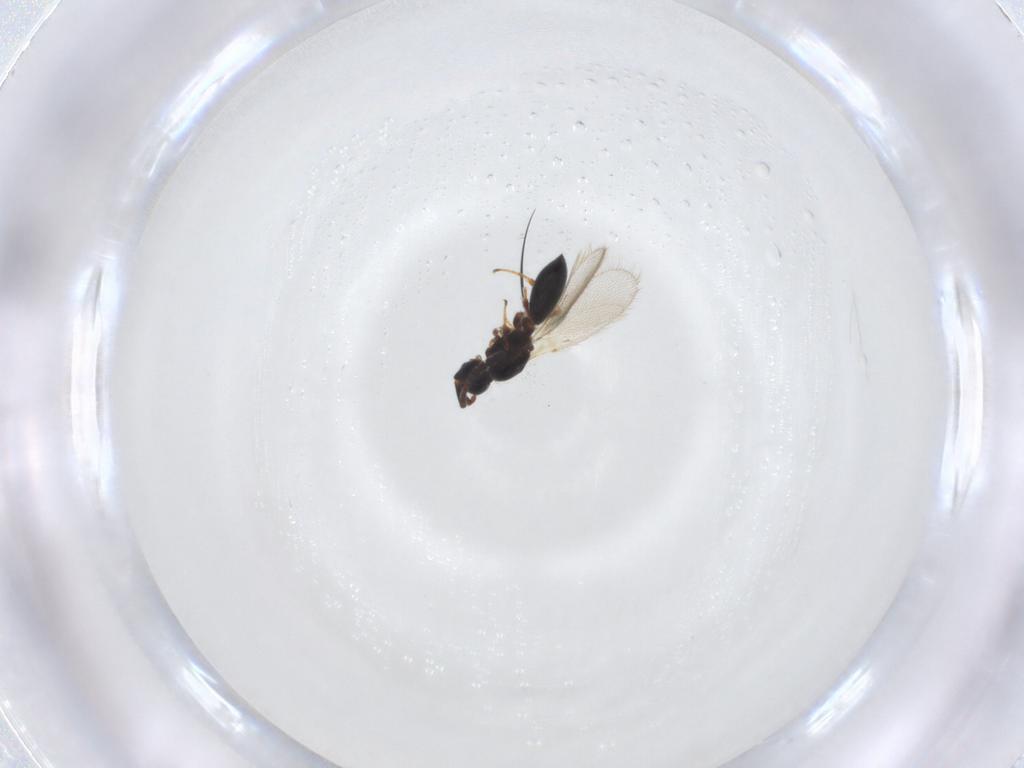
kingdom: Animalia
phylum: Arthropoda
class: Insecta
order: Hymenoptera
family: Diapriidae
